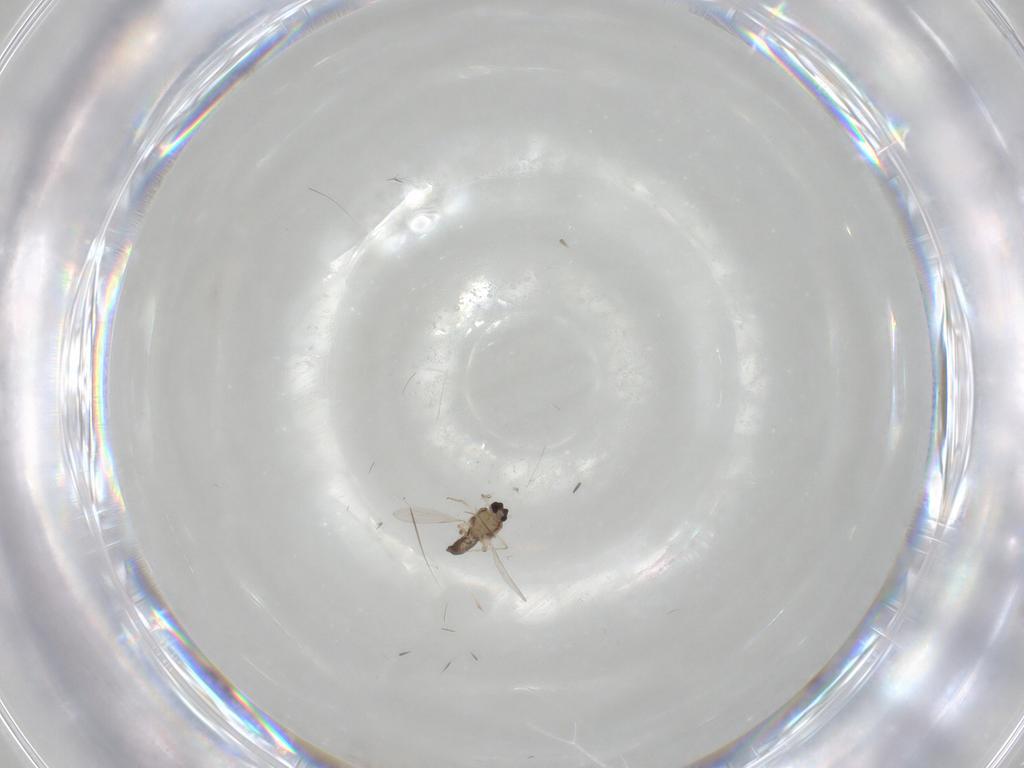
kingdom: Animalia
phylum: Arthropoda
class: Insecta
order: Diptera
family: Ceratopogonidae
